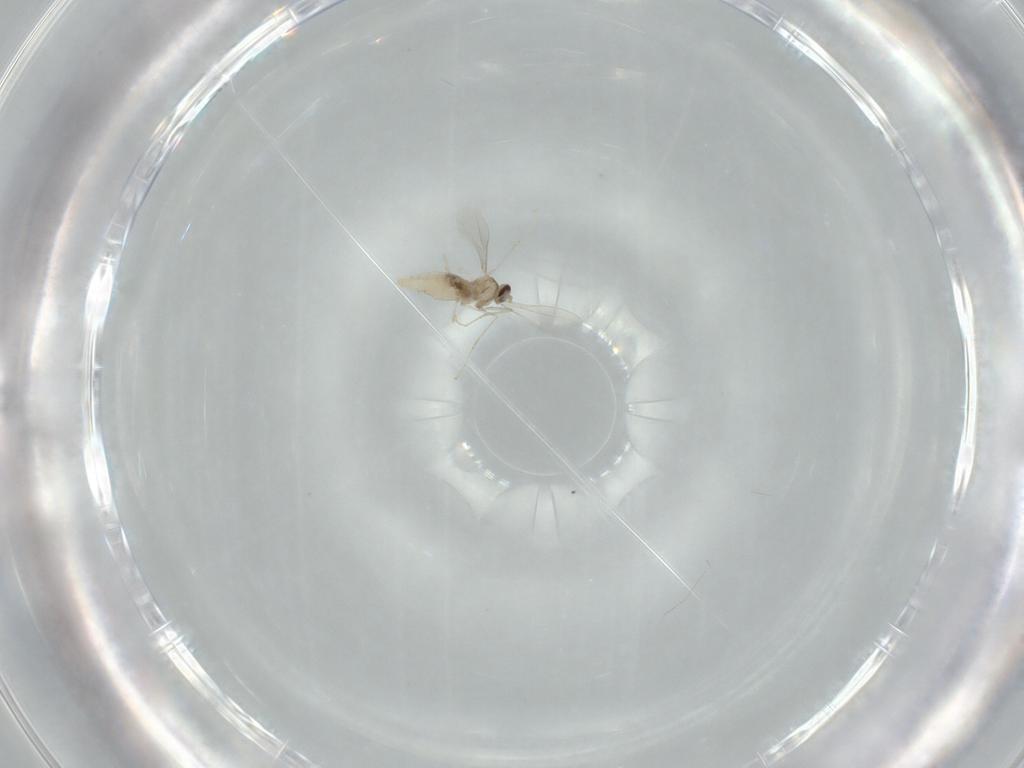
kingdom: Animalia
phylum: Arthropoda
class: Insecta
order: Diptera
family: Cecidomyiidae
